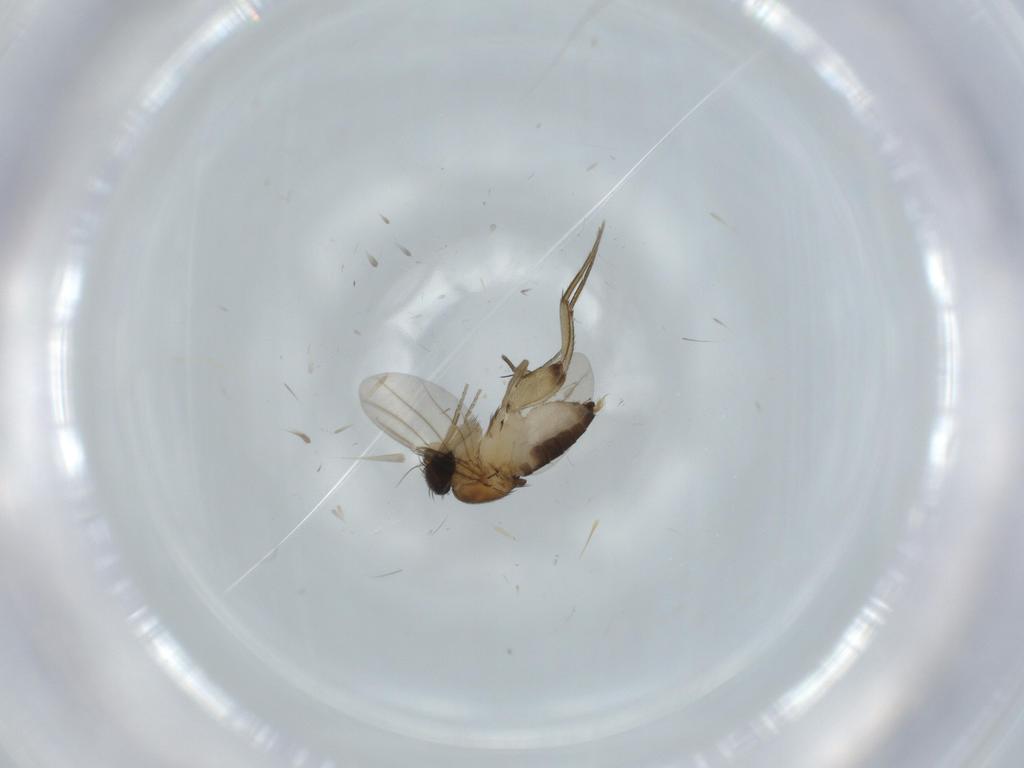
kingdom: Animalia
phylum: Arthropoda
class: Insecta
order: Diptera
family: Phoridae
